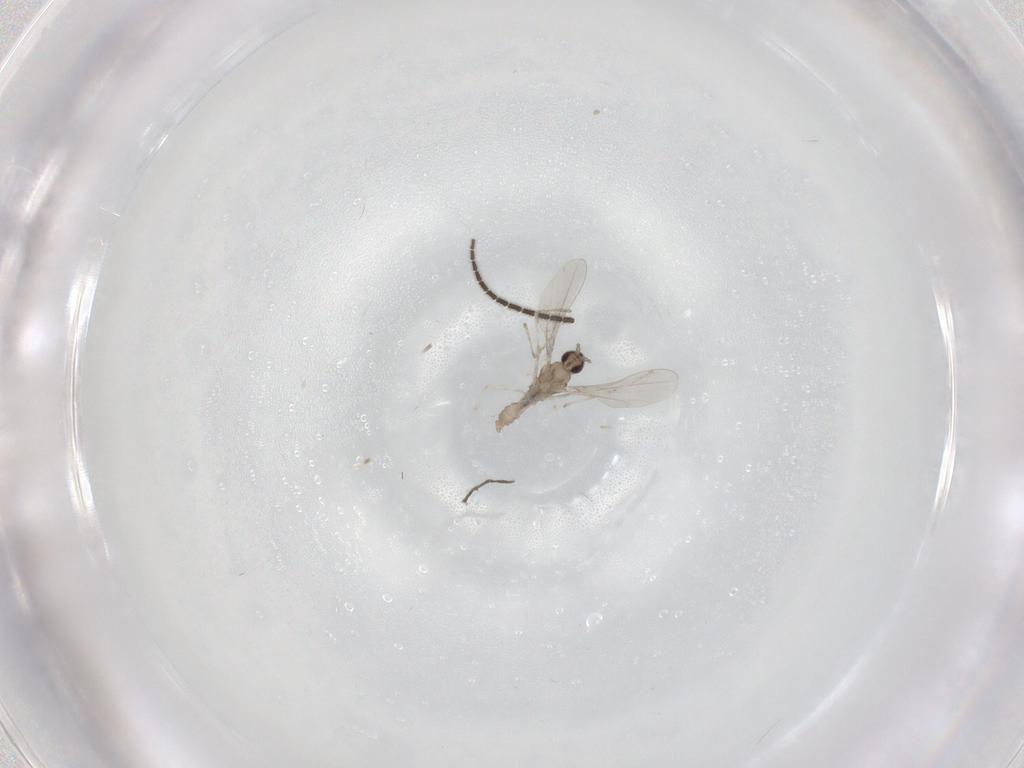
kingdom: Animalia
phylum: Arthropoda
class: Insecta
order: Diptera
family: Cecidomyiidae
